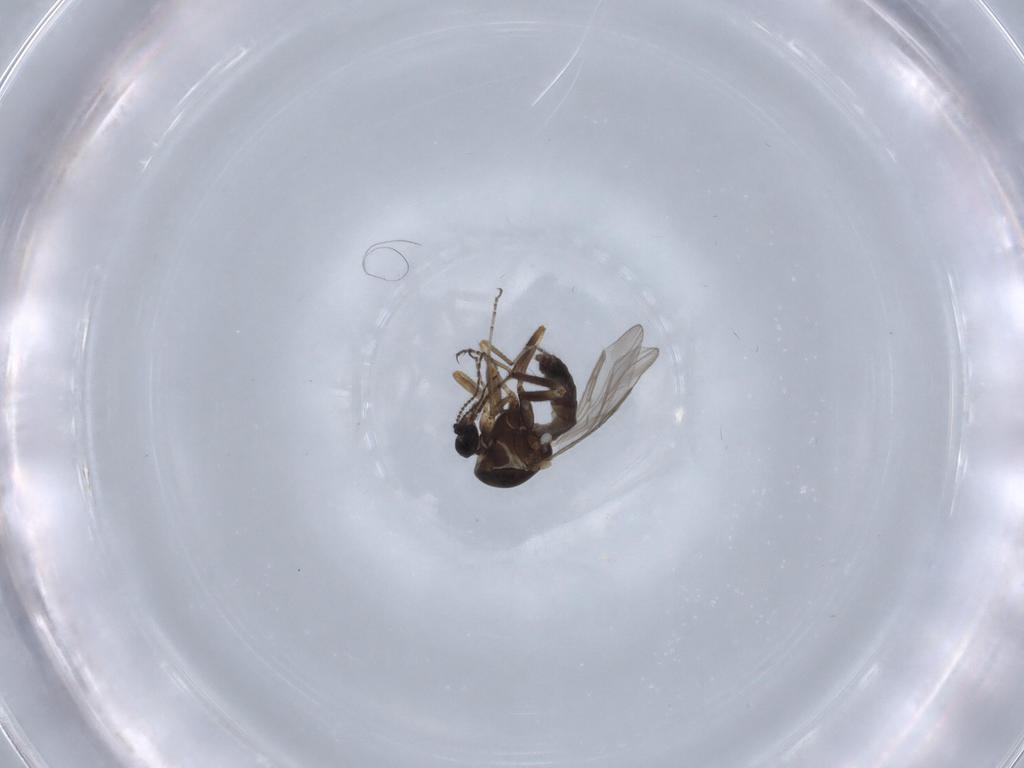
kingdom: Animalia
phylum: Arthropoda
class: Insecta
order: Diptera
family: Ceratopogonidae
